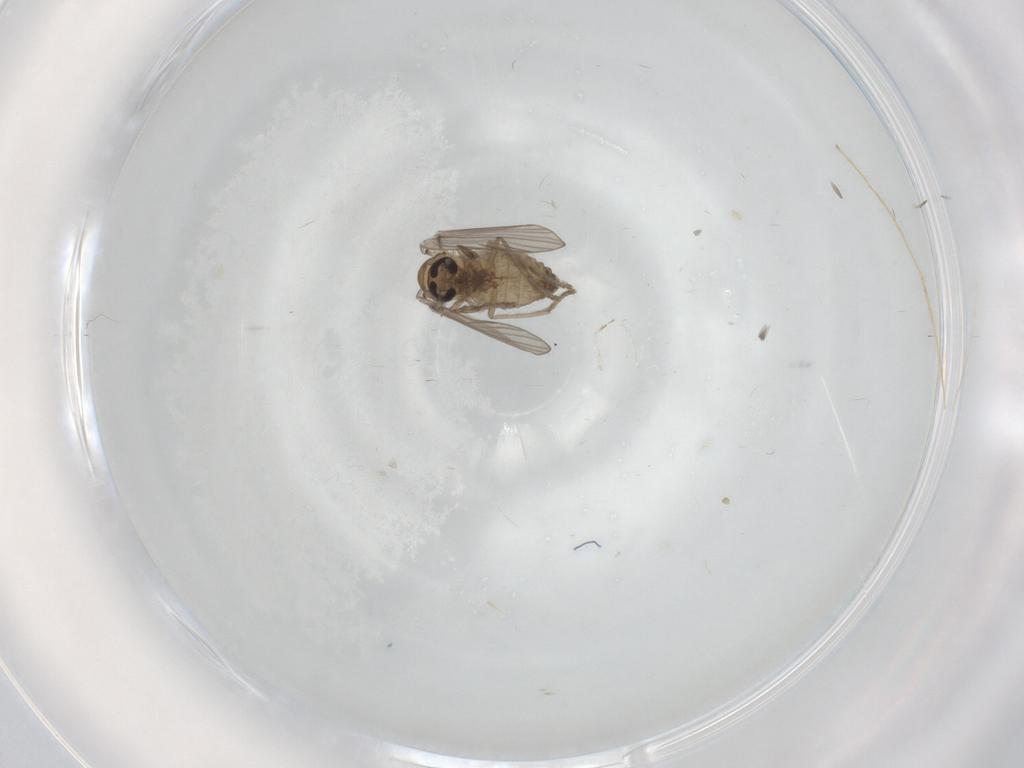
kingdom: Animalia
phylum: Arthropoda
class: Insecta
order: Diptera
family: Psychodidae
